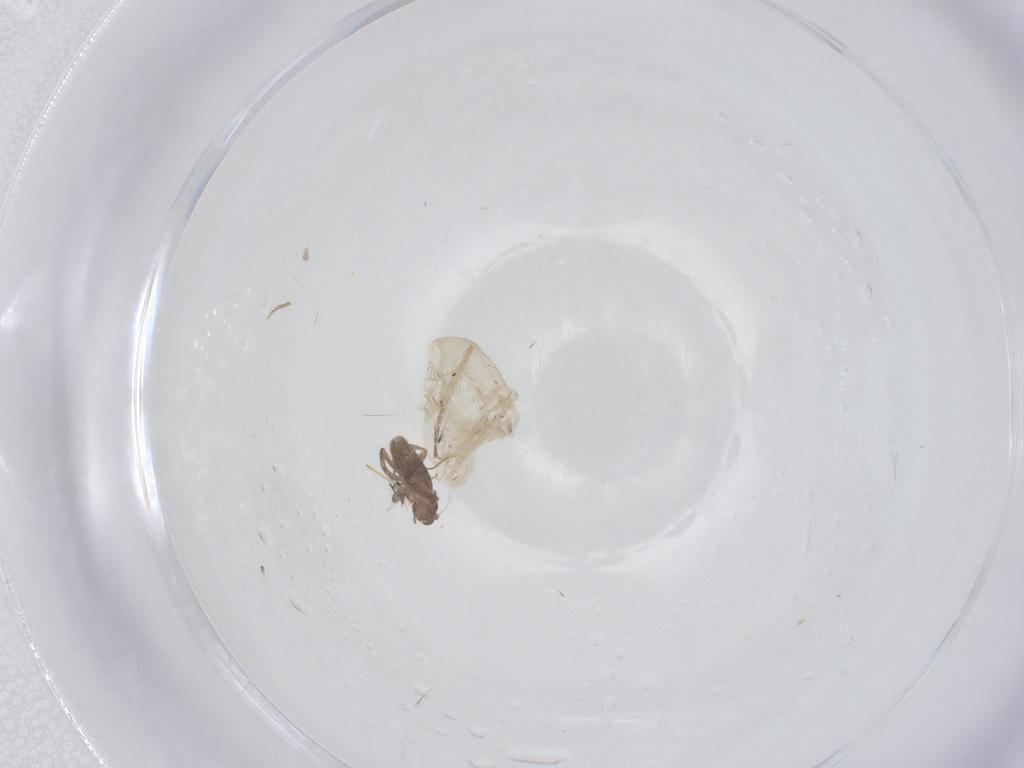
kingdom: Animalia
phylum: Arthropoda
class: Insecta
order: Diptera
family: Chironomidae
